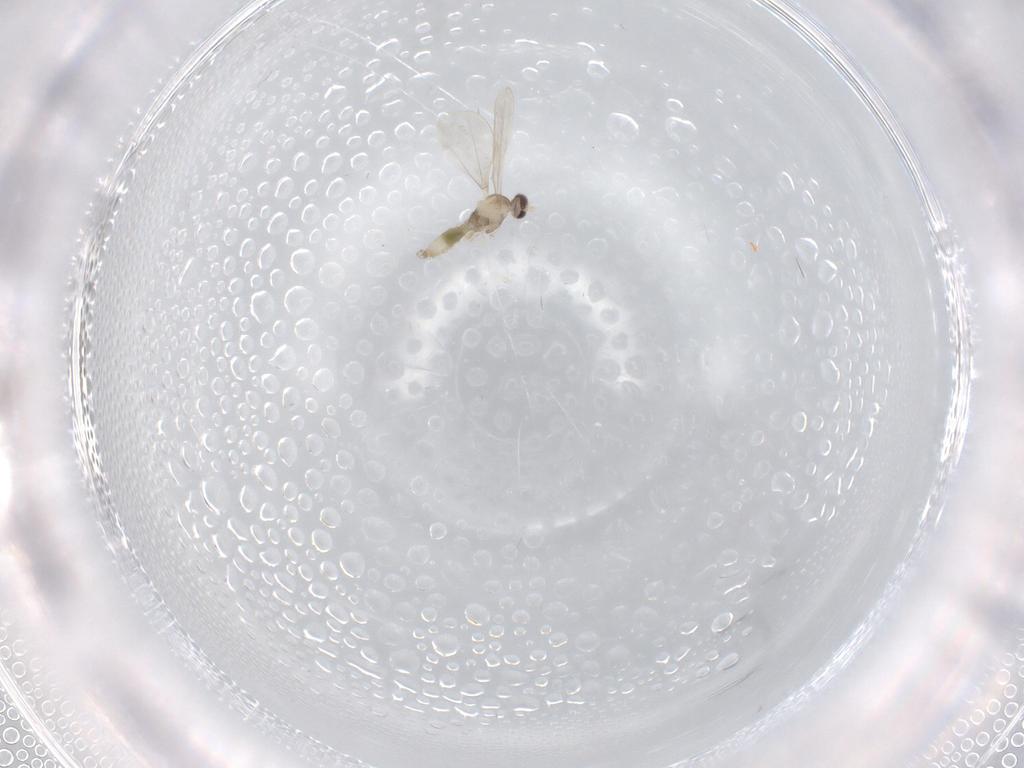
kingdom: Animalia
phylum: Arthropoda
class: Insecta
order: Diptera
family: Cecidomyiidae
